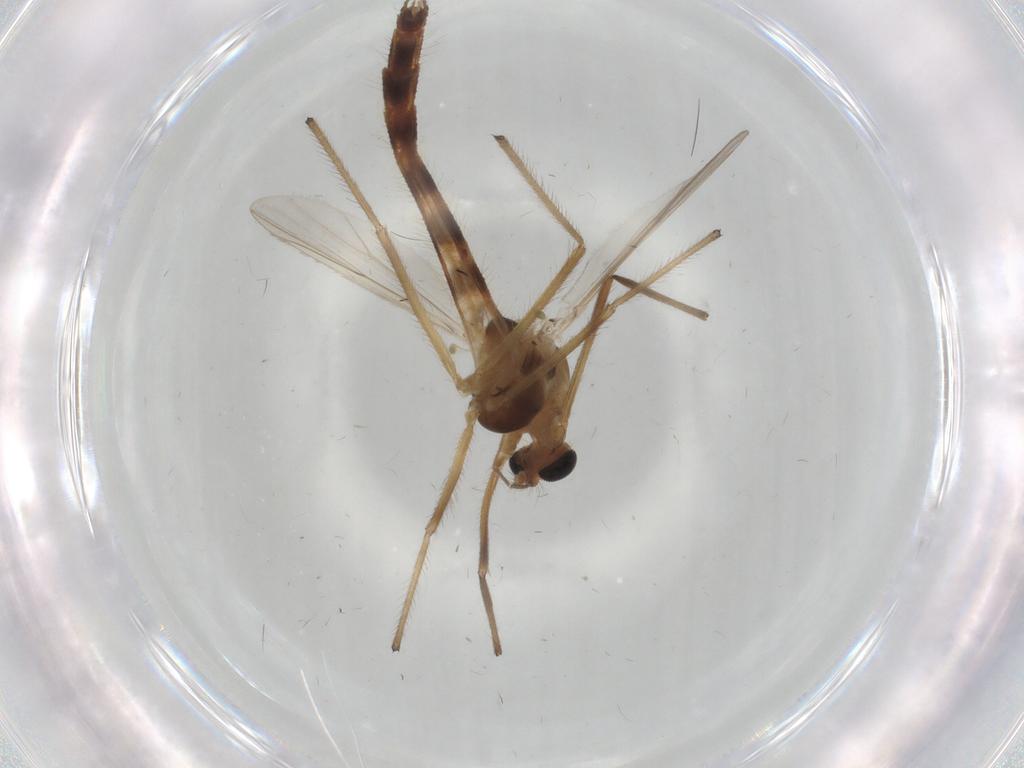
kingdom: Animalia
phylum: Arthropoda
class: Insecta
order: Diptera
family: Chironomidae
